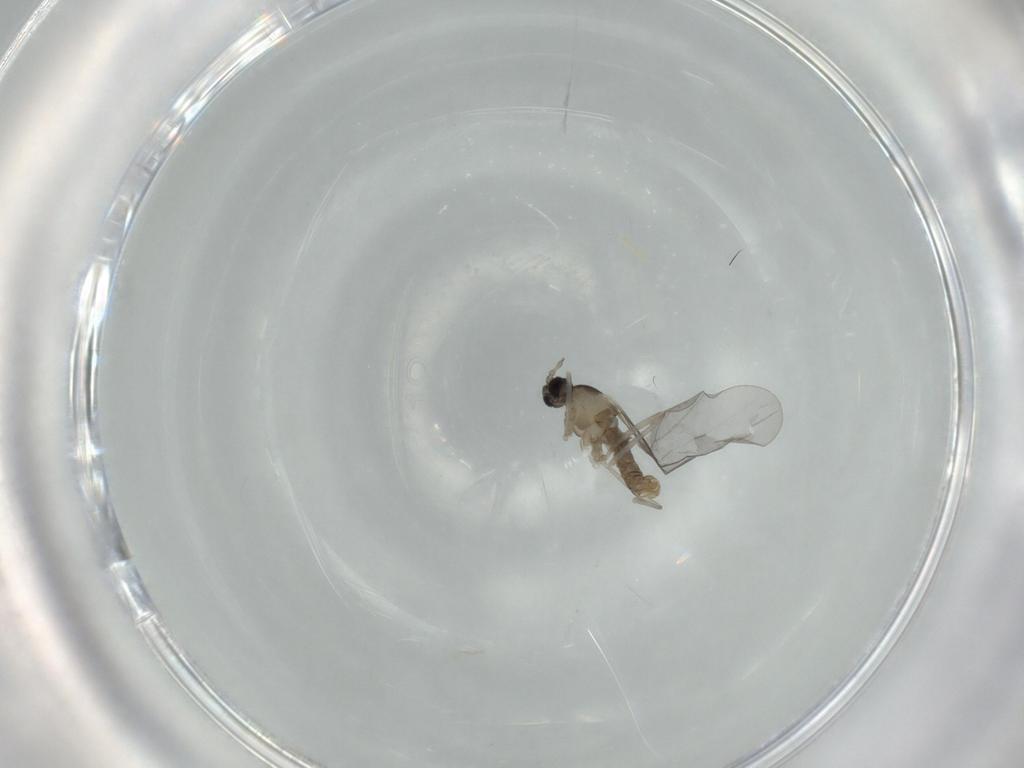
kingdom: Animalia
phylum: Arthropoda
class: Insecta
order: Diptera
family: Cecidomyiidae
